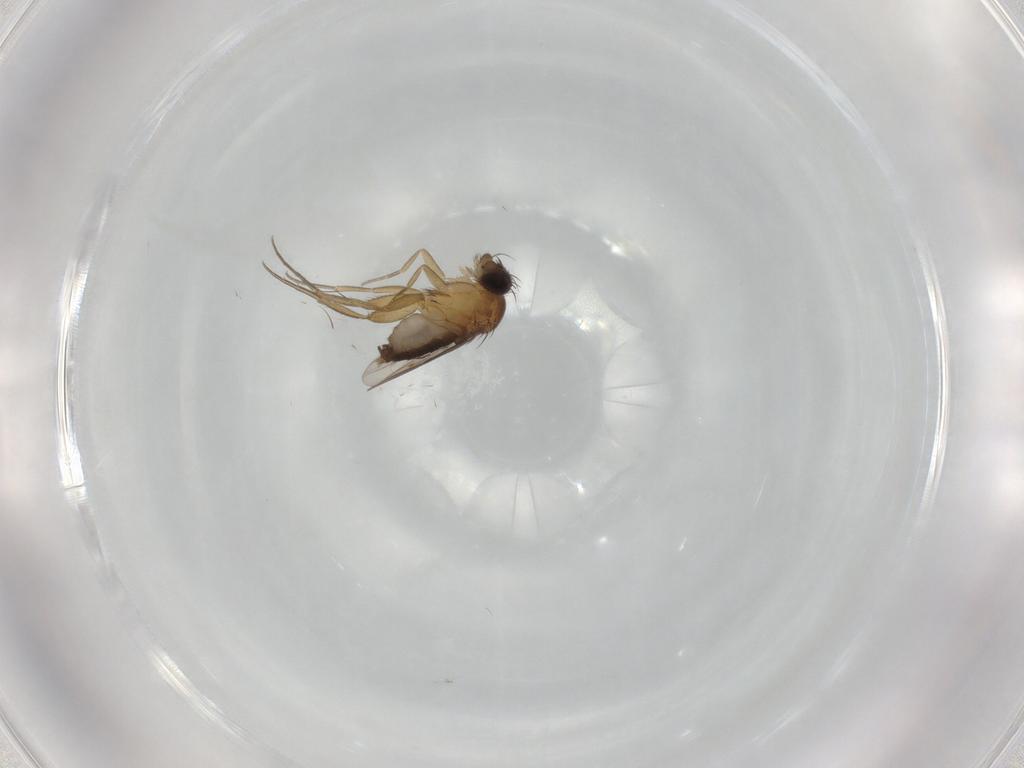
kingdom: Animalia
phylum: Arthropoda
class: Insecta
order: Diptera
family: Phoridae
